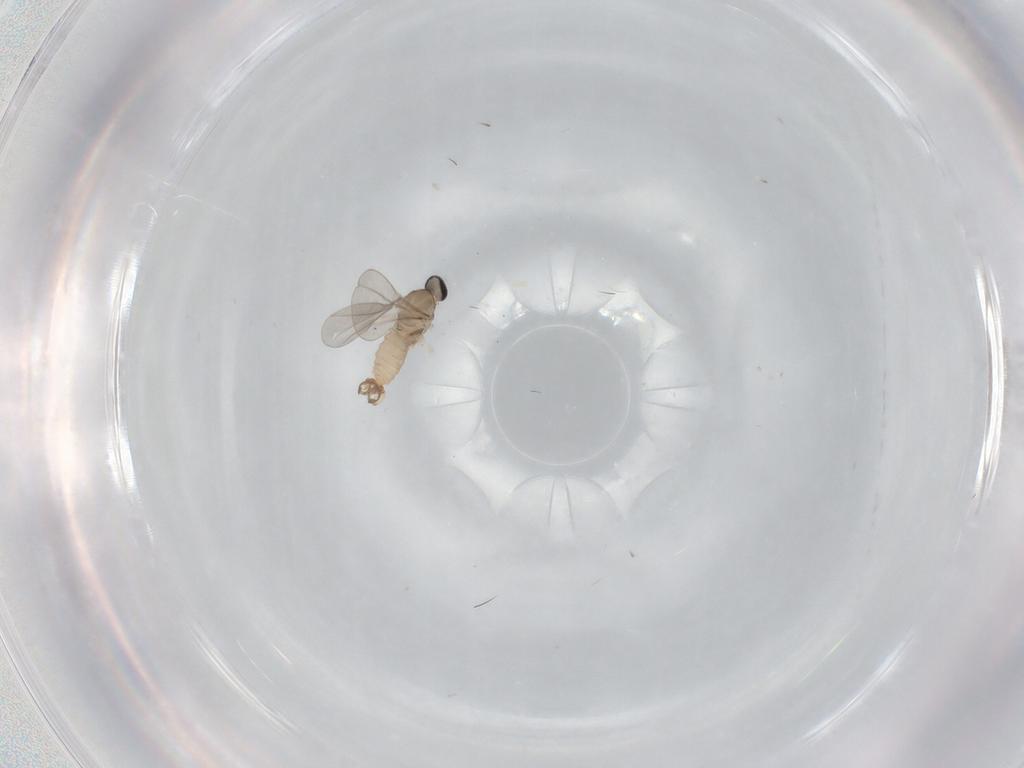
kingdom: Animalia
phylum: Arthropoda
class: Insecta
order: Diptera
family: Cecidomyiidae
